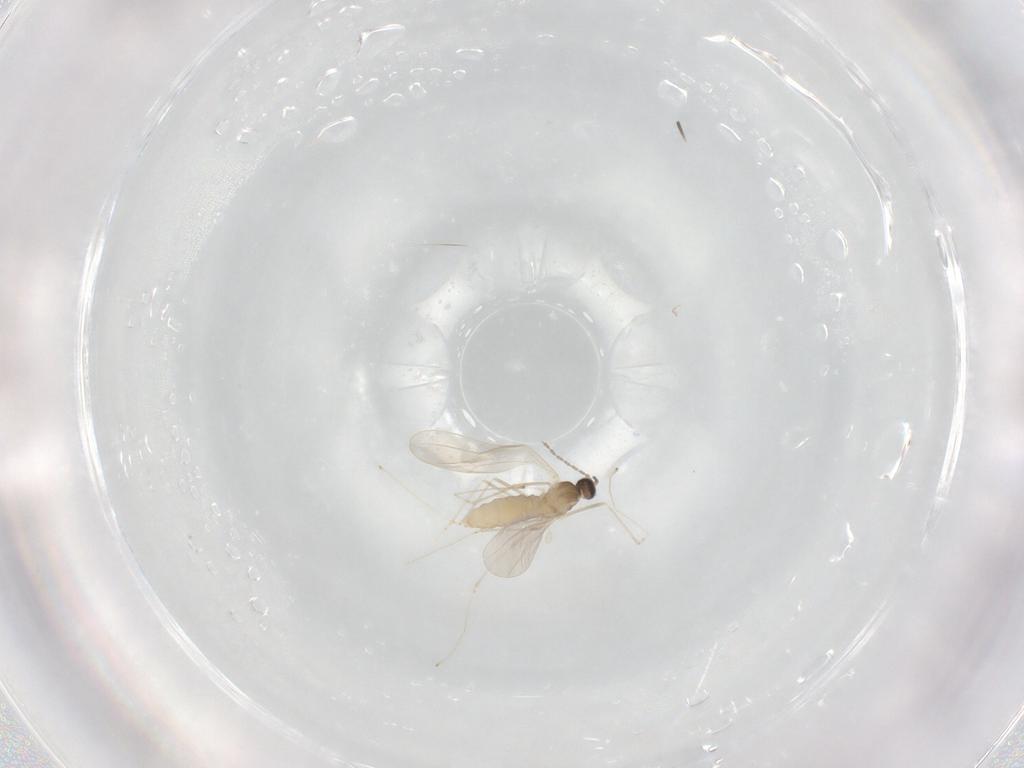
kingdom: Animalia
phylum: Arthropoda
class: Insecta
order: Diptera
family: Cecidomyiidae
